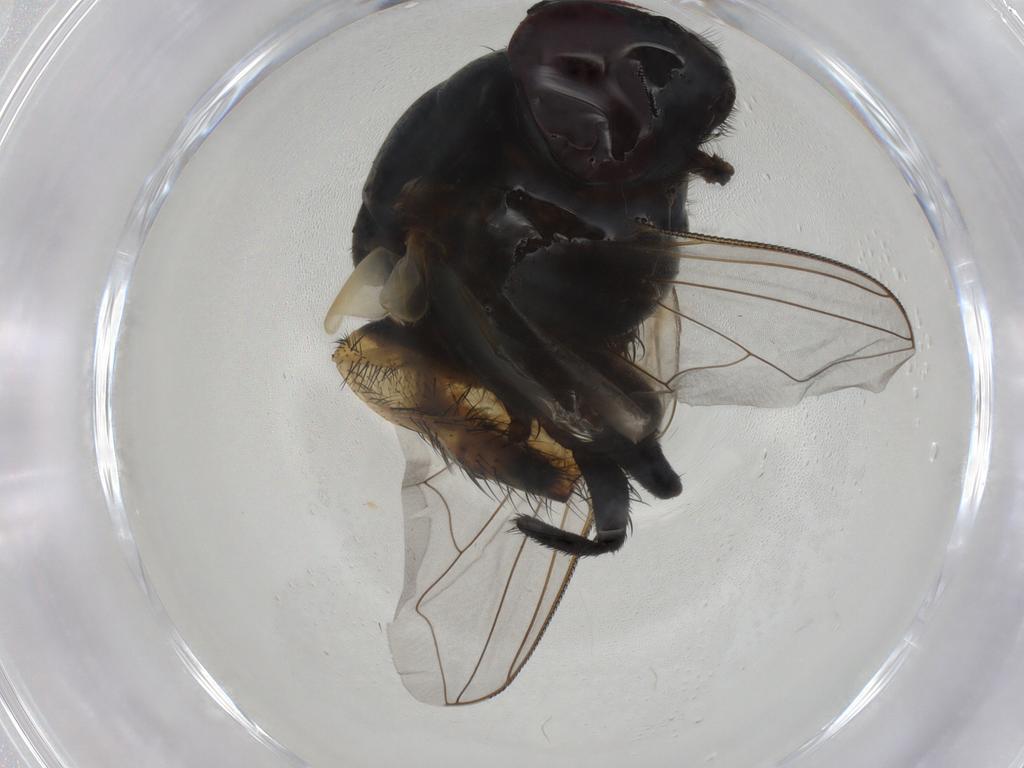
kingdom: Animalia
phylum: Arthropoda
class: Insecta
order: Diptera
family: Muscidae
